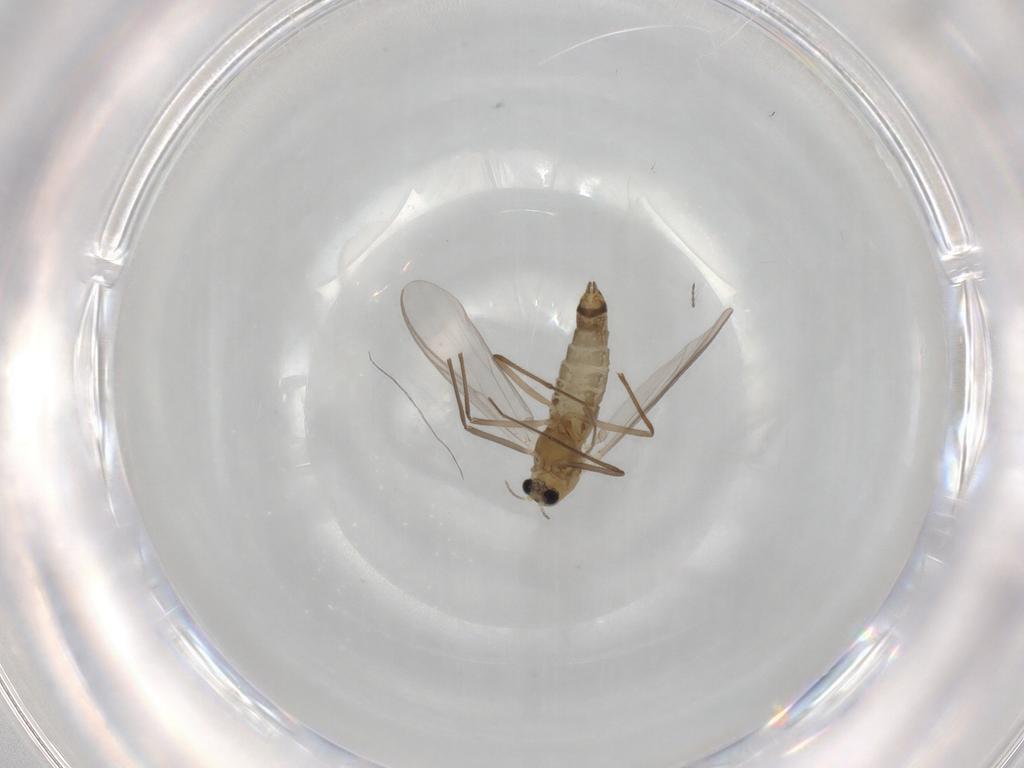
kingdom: Animalia
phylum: Arthropoda
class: Insecta
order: Diptera
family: Chironomidae
